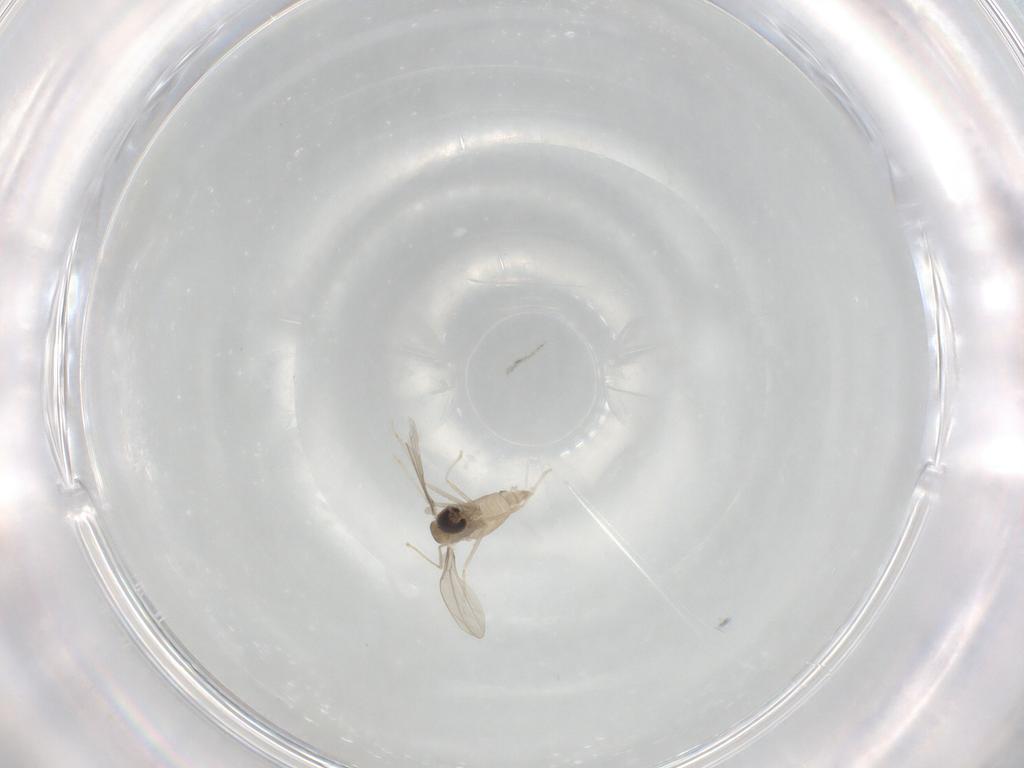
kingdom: Animalia
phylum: Arthropoda
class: Insecta
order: Diptera
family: Cecidomyiidae
